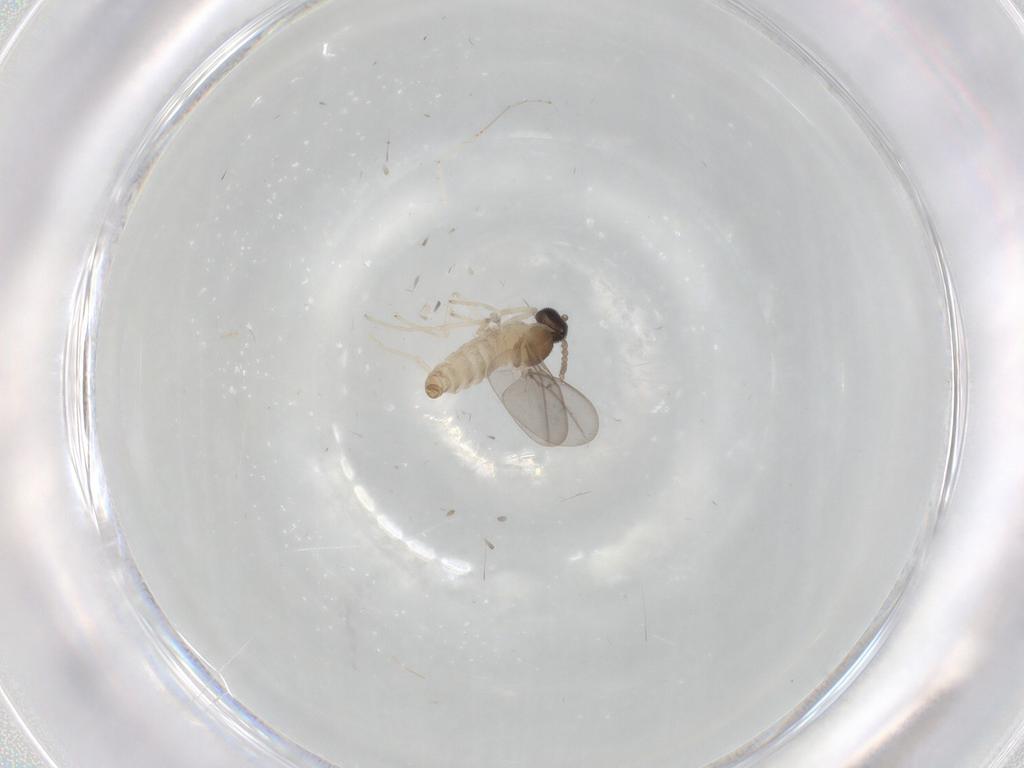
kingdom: Animalia
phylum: Arthropoda
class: Insecta
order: Diptera
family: Cecidomyiidae
